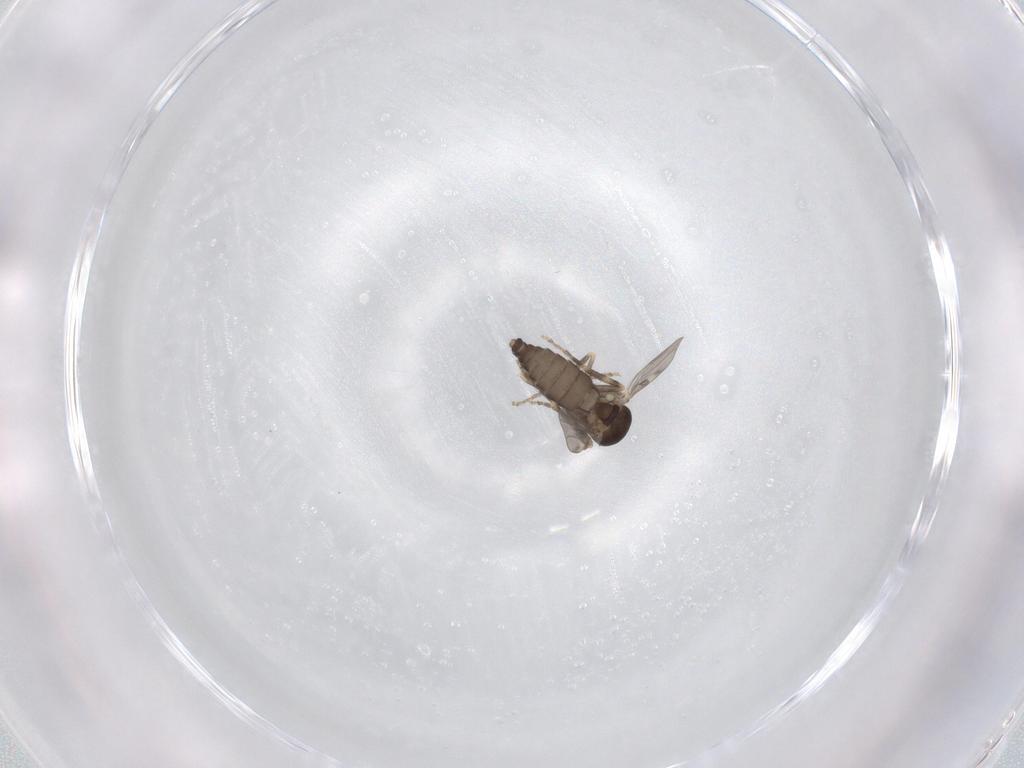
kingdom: Animalia
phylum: Arthropoda
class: Insecta
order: Diptera
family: Ceratopogonidae
